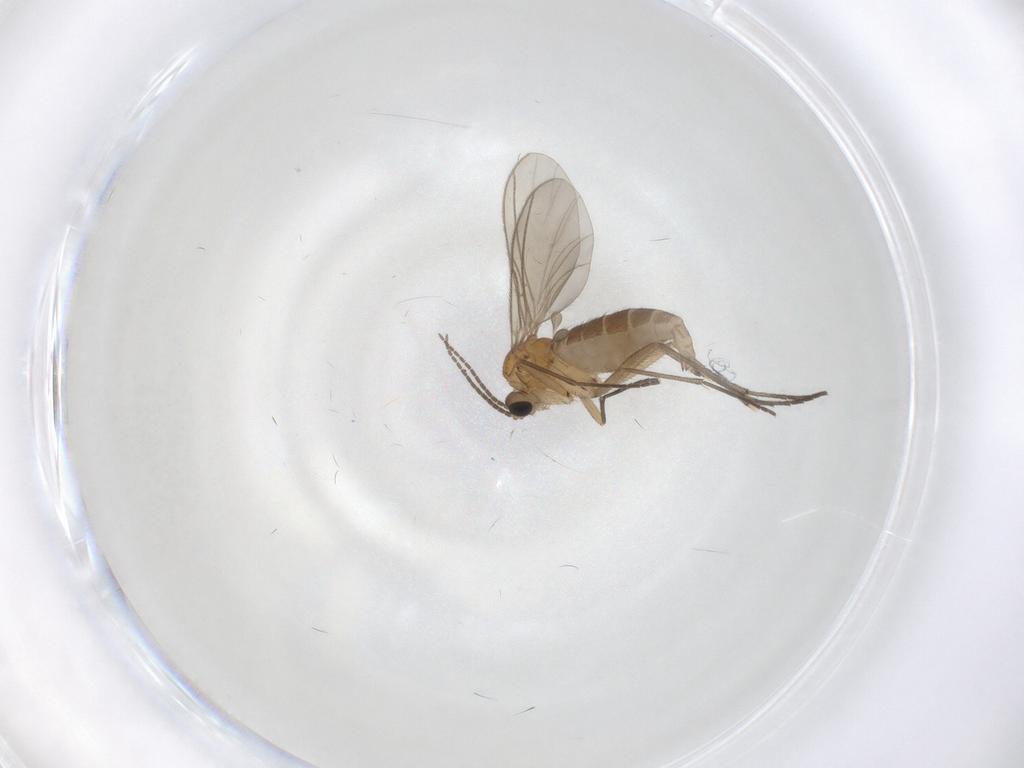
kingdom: Animalia
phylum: Arthropoda
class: Insecta
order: Diptera
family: Sciaridae
